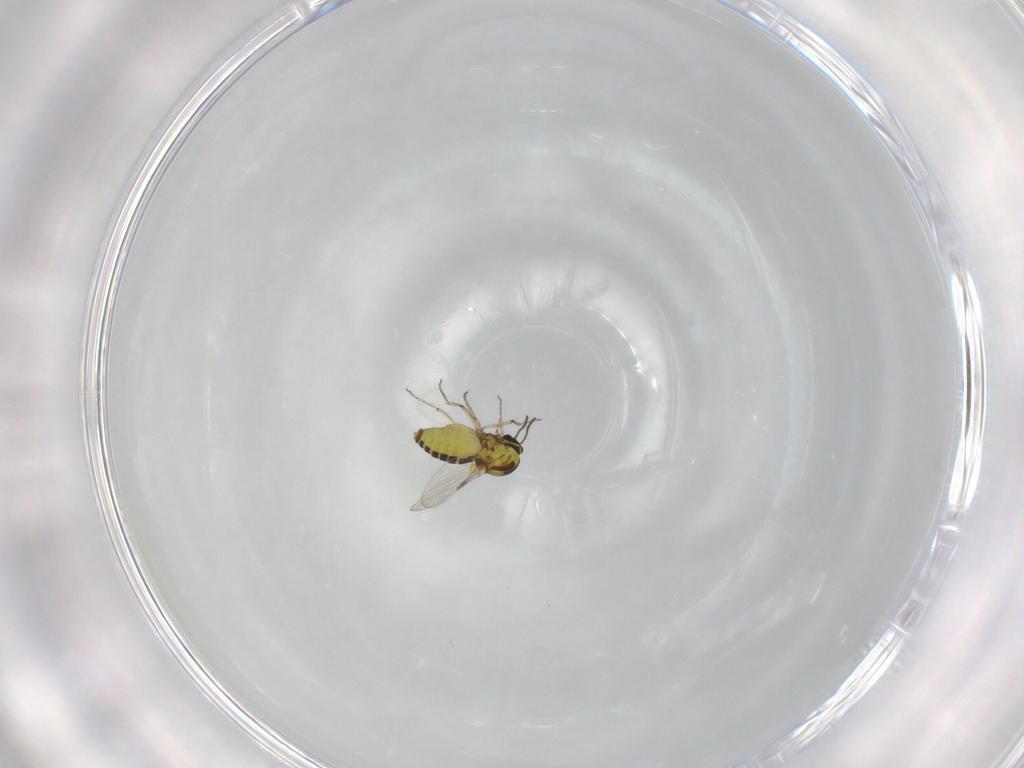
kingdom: Animalia
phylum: Arthropoda
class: Insecta
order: Diptera
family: Ceratopogonidae
